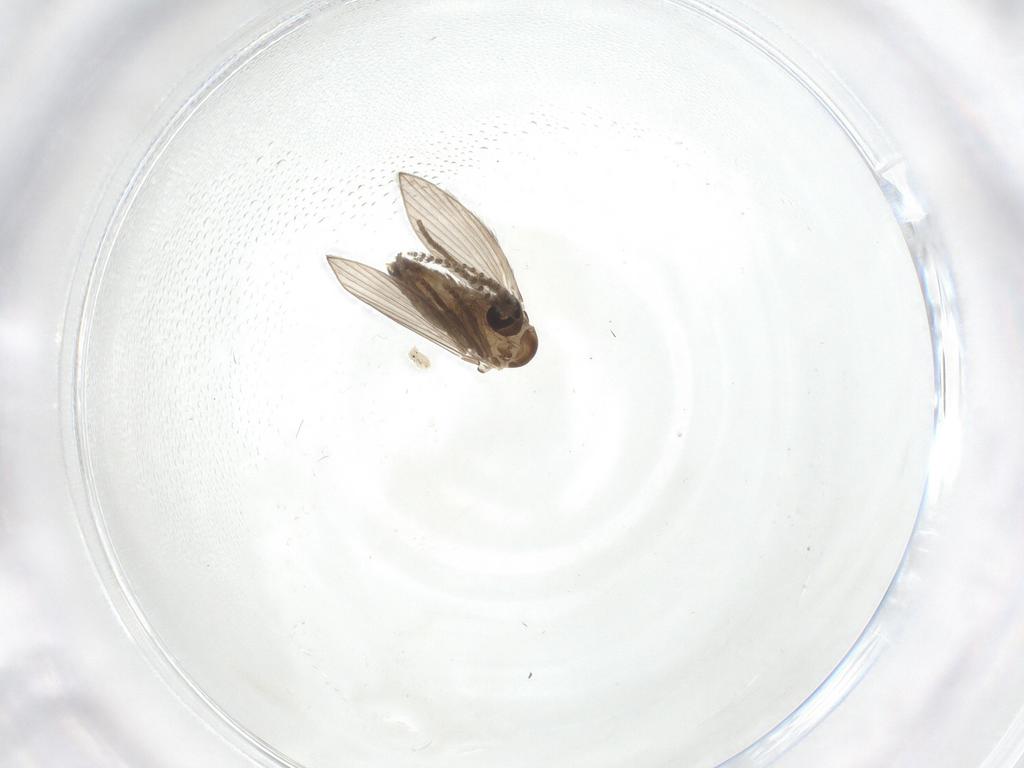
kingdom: Animalia
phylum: Arthropoda
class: Insecta
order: Diptera
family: Psychodidae
